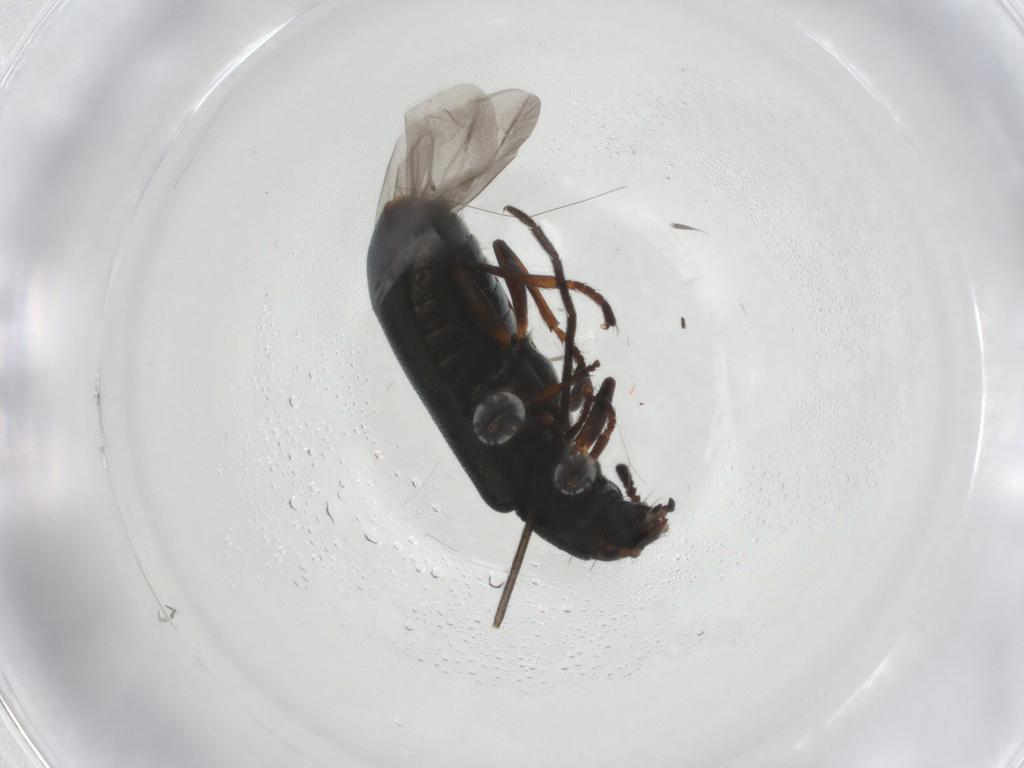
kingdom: Animalia
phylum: Arthropoda
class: Insecta
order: Coleoptera
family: Melyridae
